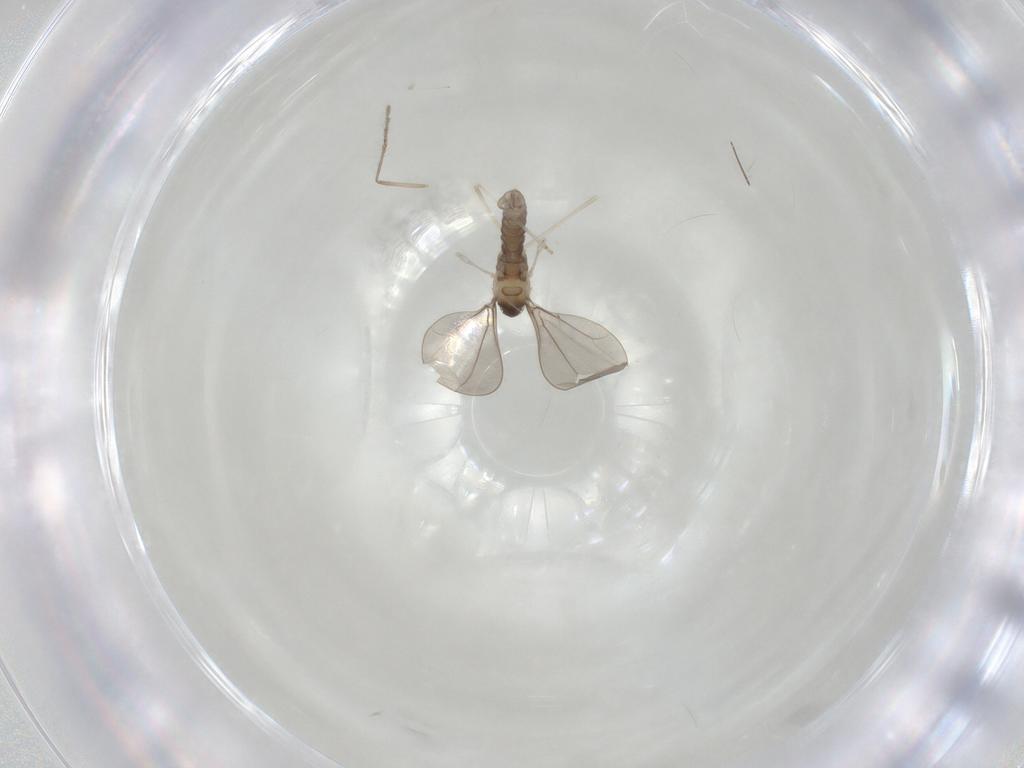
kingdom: Animalia
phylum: Arthropoda
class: Insecta
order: Diptera
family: Cecidomyiidae
